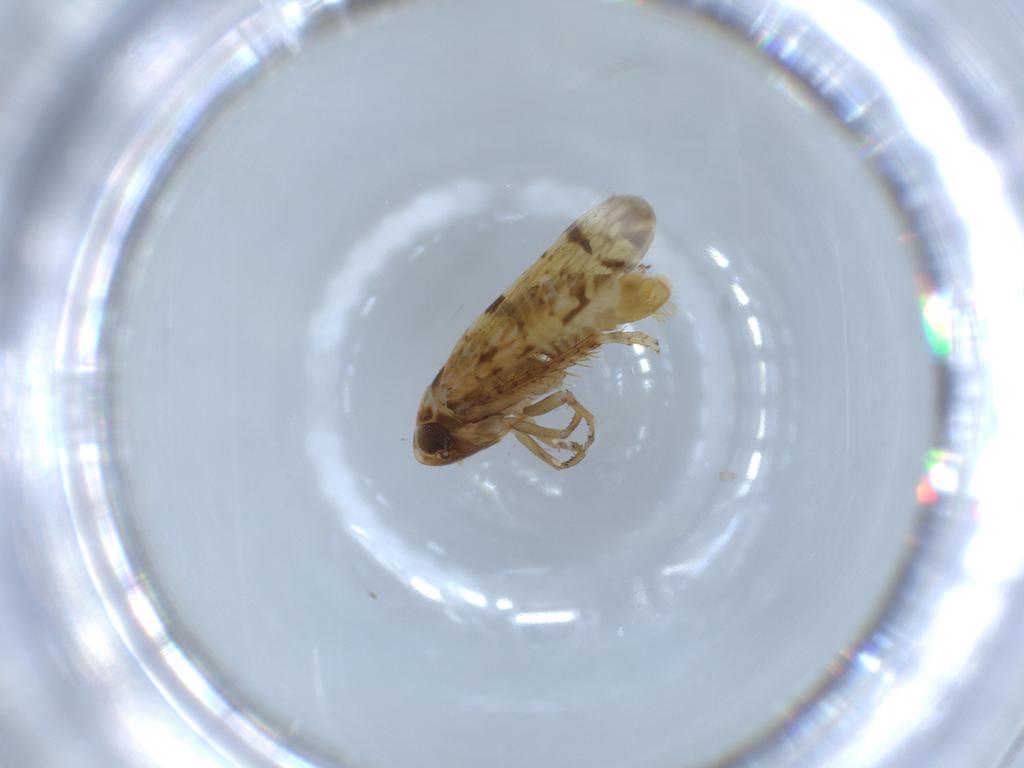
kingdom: Animalia
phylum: Arthropoda
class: Insecta
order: Hemiptera
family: Cicadellidae
